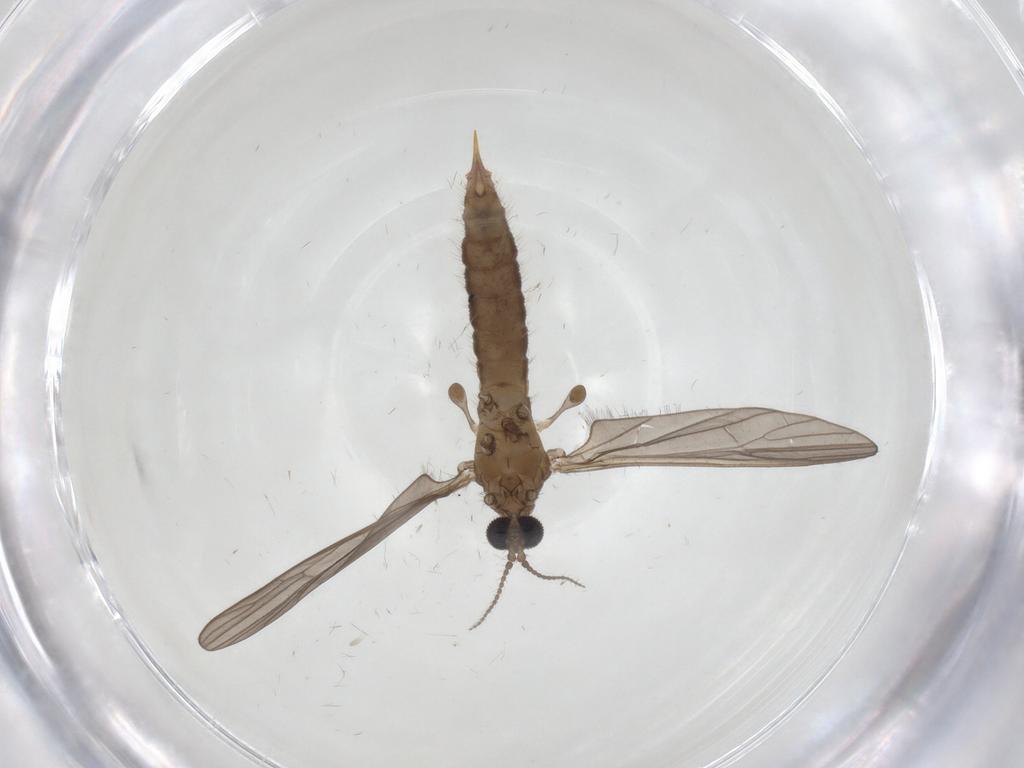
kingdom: Animalia
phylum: Arthropoda
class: Insecta
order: Diptera
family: Limoniidae
